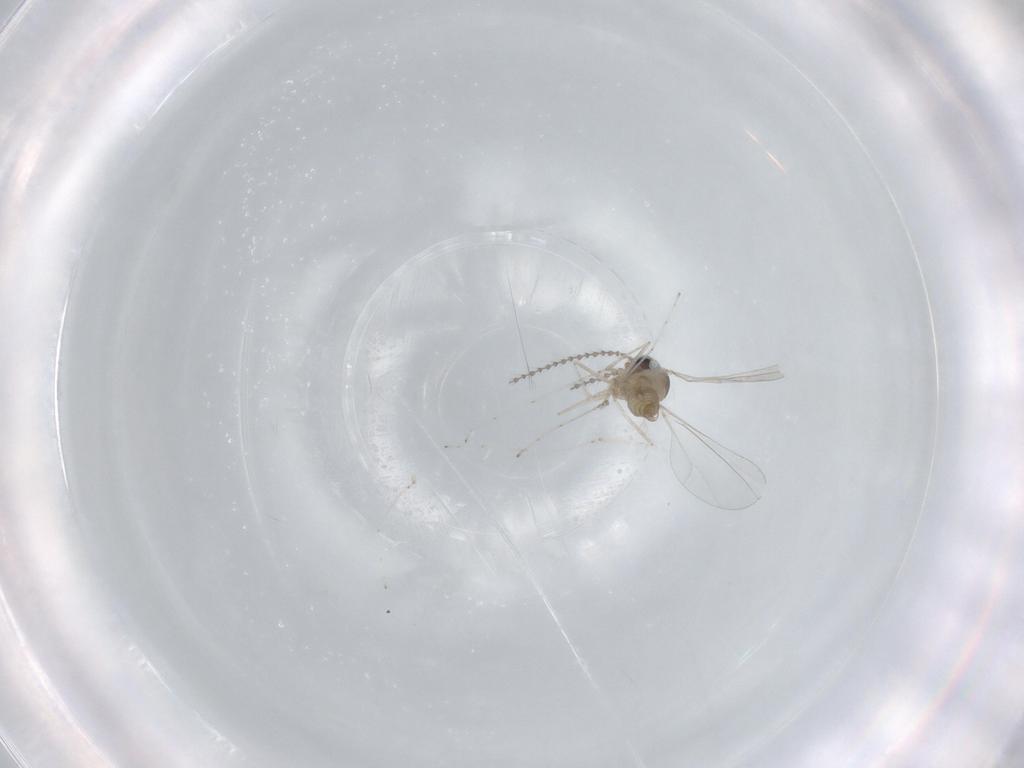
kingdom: Animalia
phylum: Arthropoda
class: Insecta
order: Diptera
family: Cecidomyiidae
